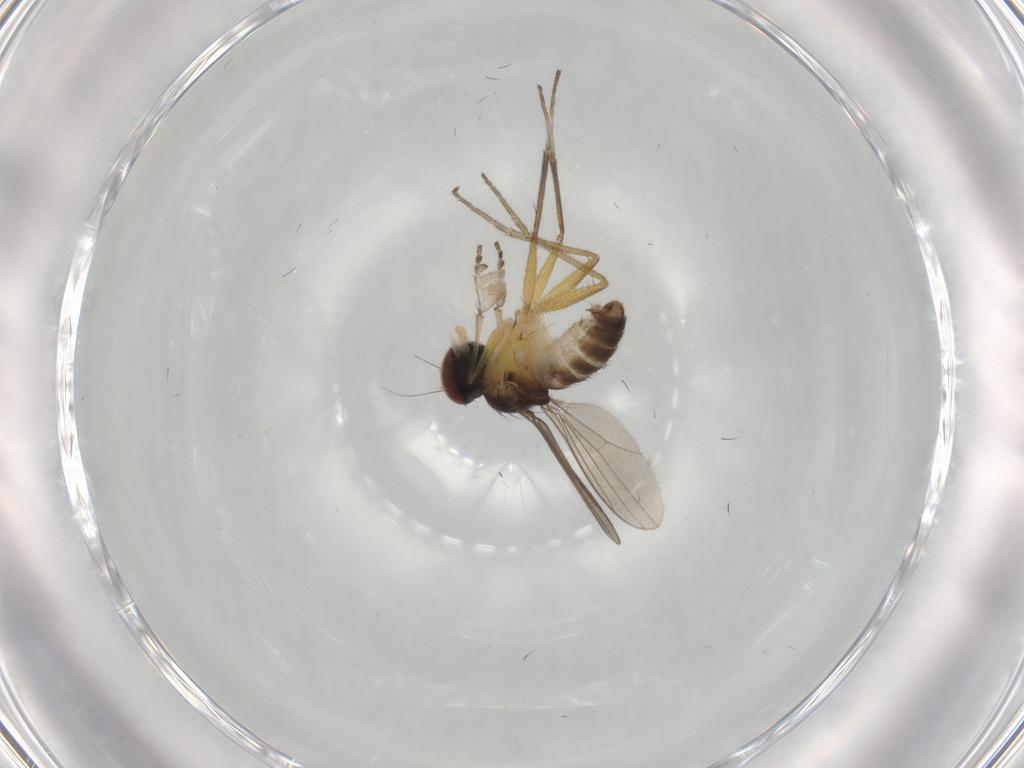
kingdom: Animalia
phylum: Arthropoda
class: Insecta
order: Diptera
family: Dolichopodidae
